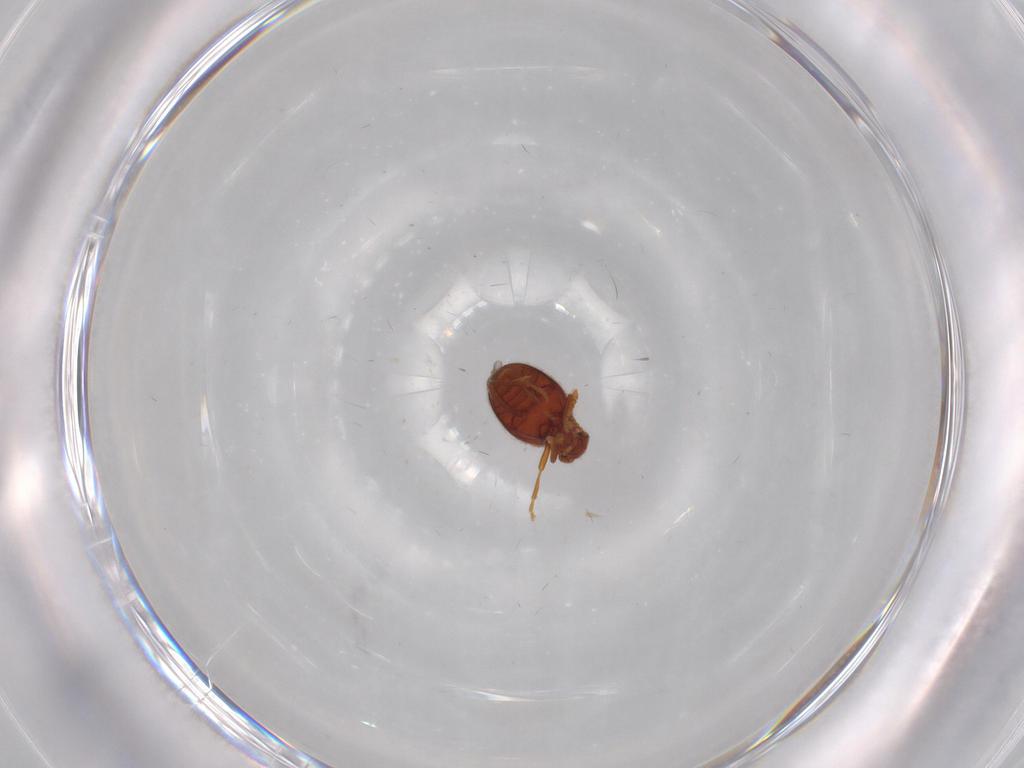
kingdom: Animalia
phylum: Arthropoda
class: Insecta
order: Coleoptera
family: Aderidae
